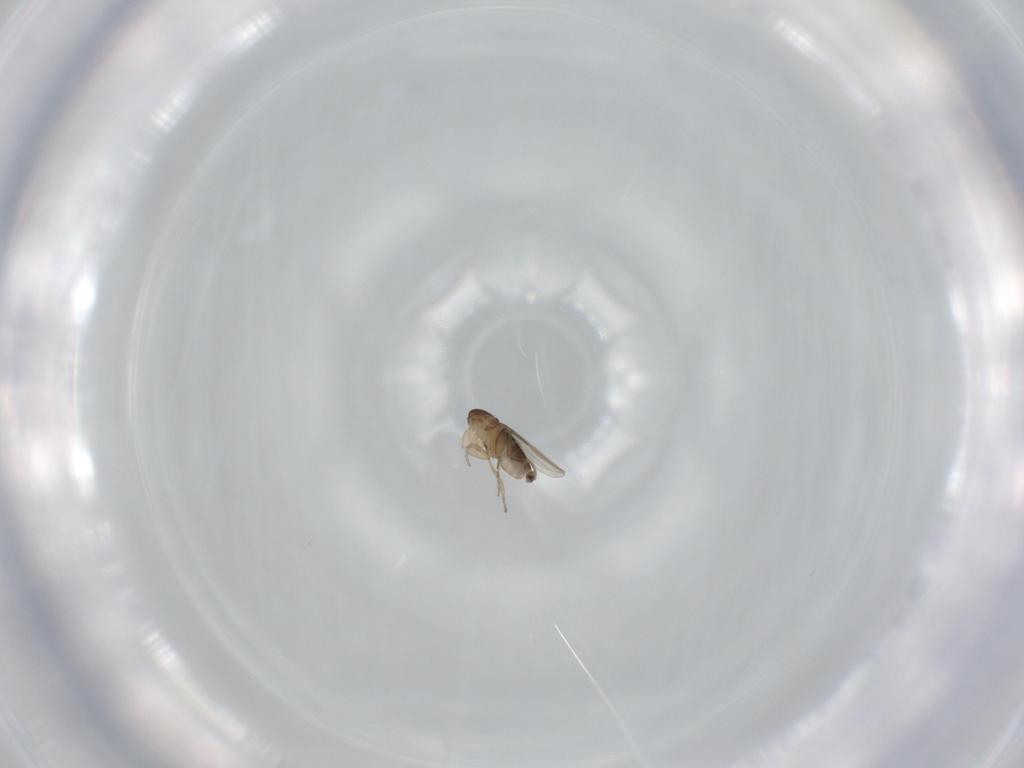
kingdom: Animalia
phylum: Arthropoda
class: Insecta
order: Diptera
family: Phoridae
